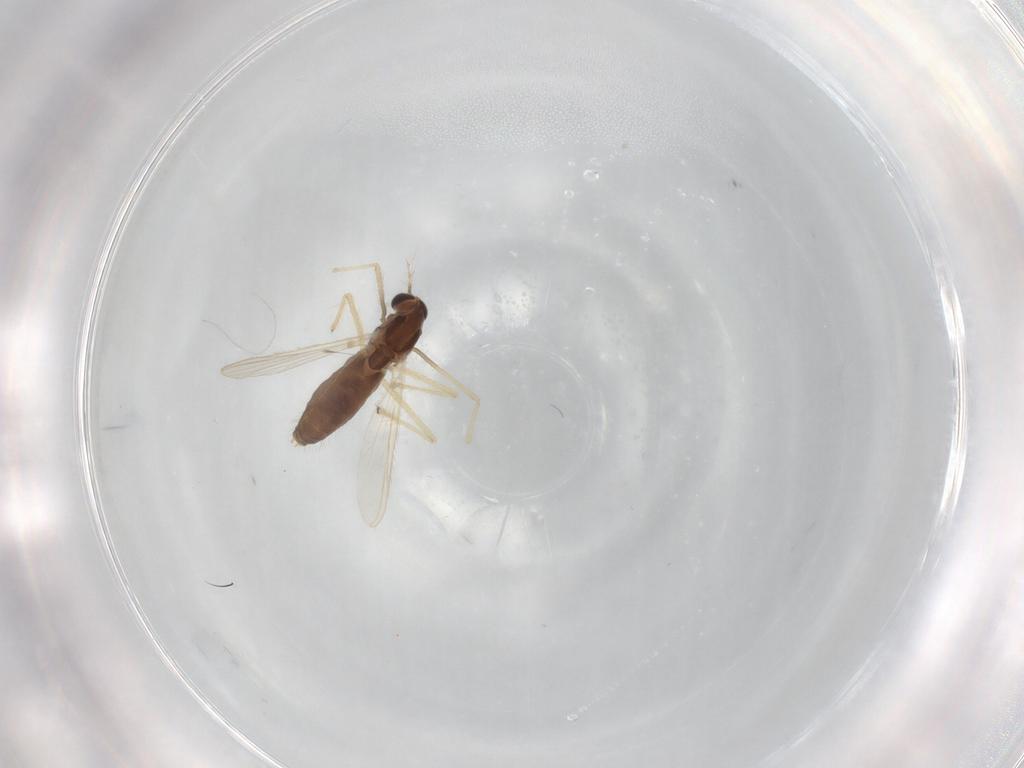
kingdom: Animalia
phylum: Arthropoda
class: Insecta
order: Diptera
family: Chironomidae
